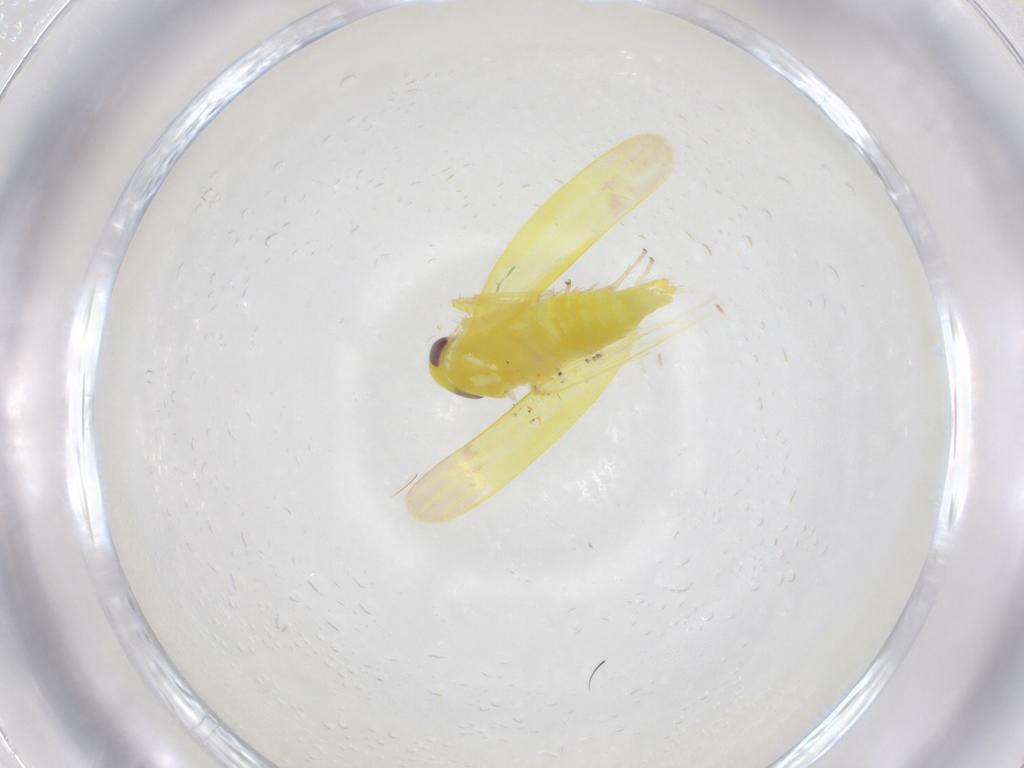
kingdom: Animalia
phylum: Arthropoda
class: Insecta
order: Hemiptera
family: Cicadellidae
